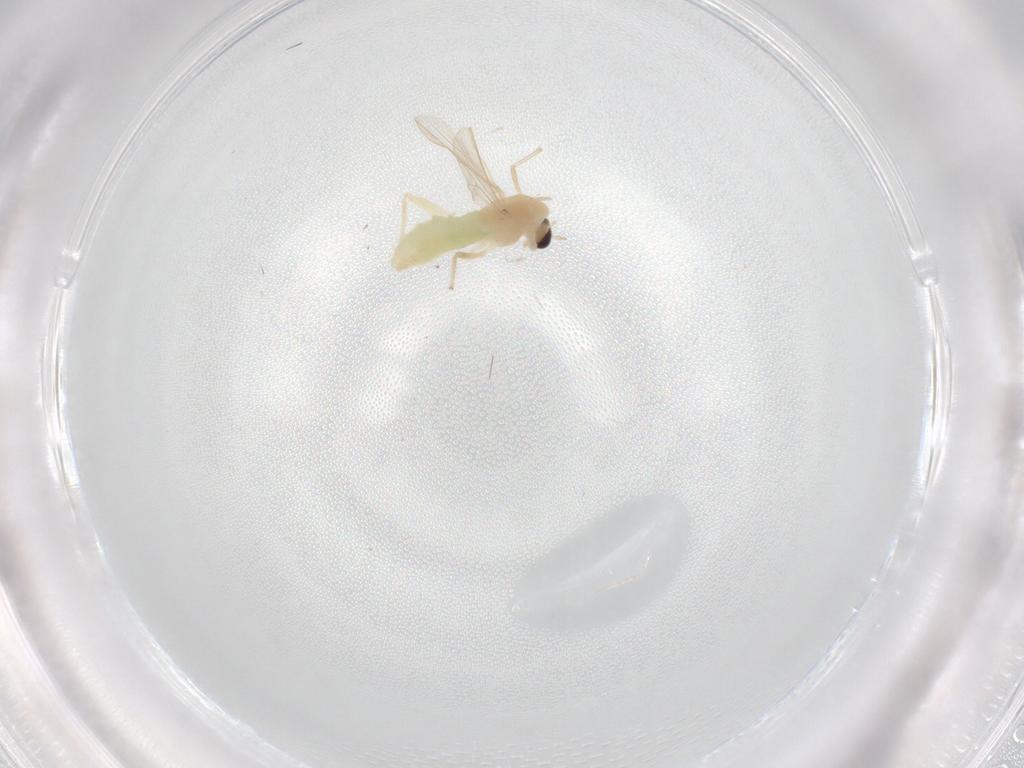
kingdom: Animalia
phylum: Arthropoda
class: Insecta
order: Diptera
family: Chironomidae
